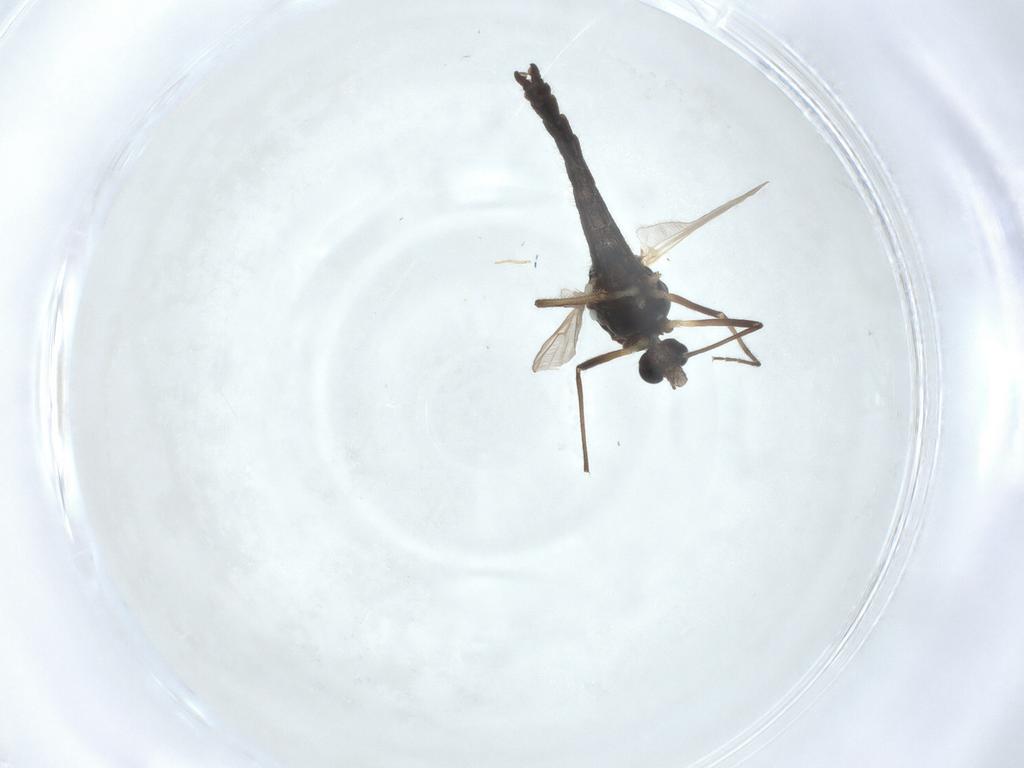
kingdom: Animalia
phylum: Arthropoda
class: Insecta
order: Diptera
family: Chironomidae
